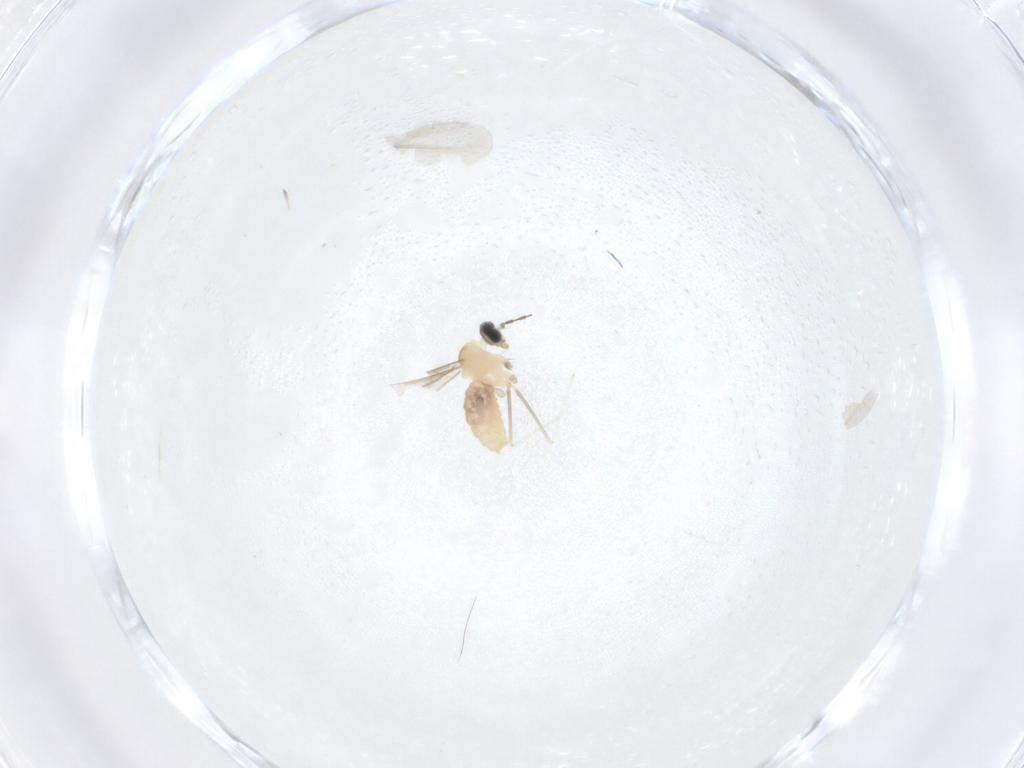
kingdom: Animalia
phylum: Arthropoda
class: Insecta
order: Diptera
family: Cecidomyiidae
